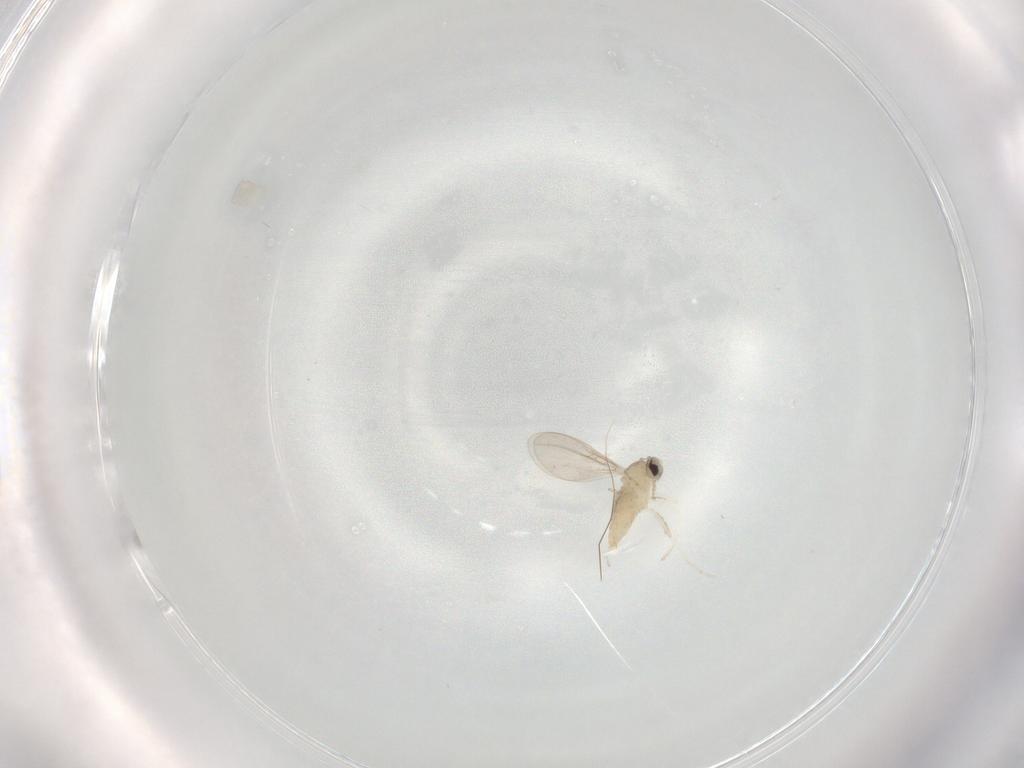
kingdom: Animalia
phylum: Arthropoda
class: Insecta
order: Diptera
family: Cecidomyiidae
